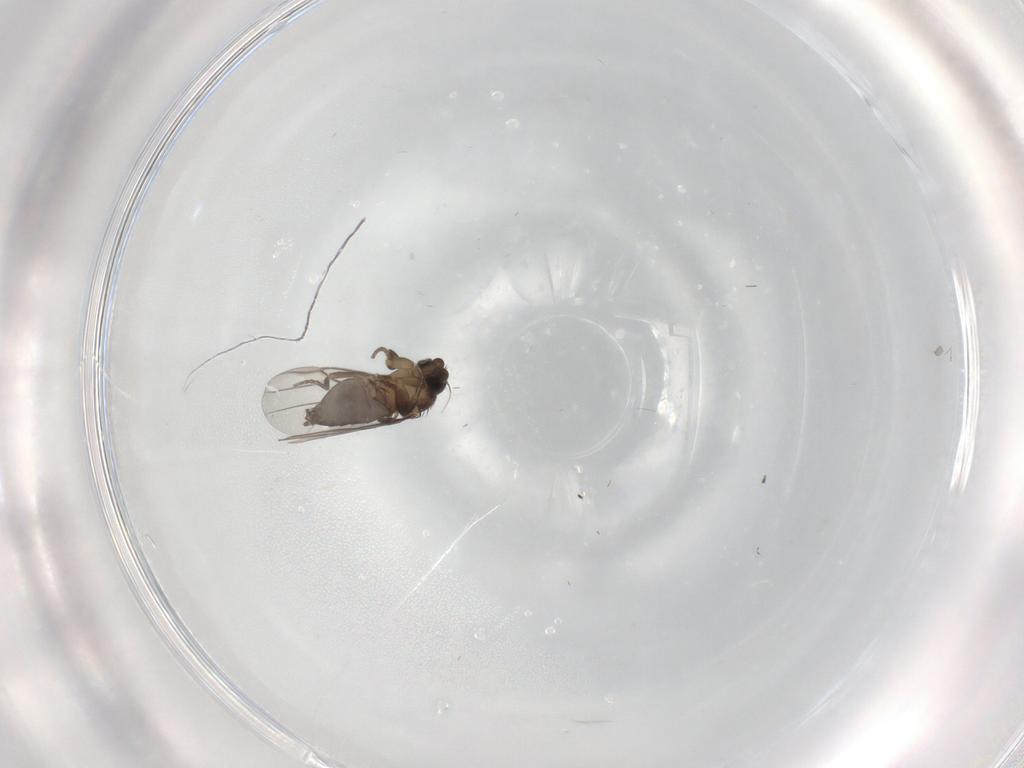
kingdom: Animalia
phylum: Arthropoda
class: Insecta
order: Diptera
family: Phoridae
